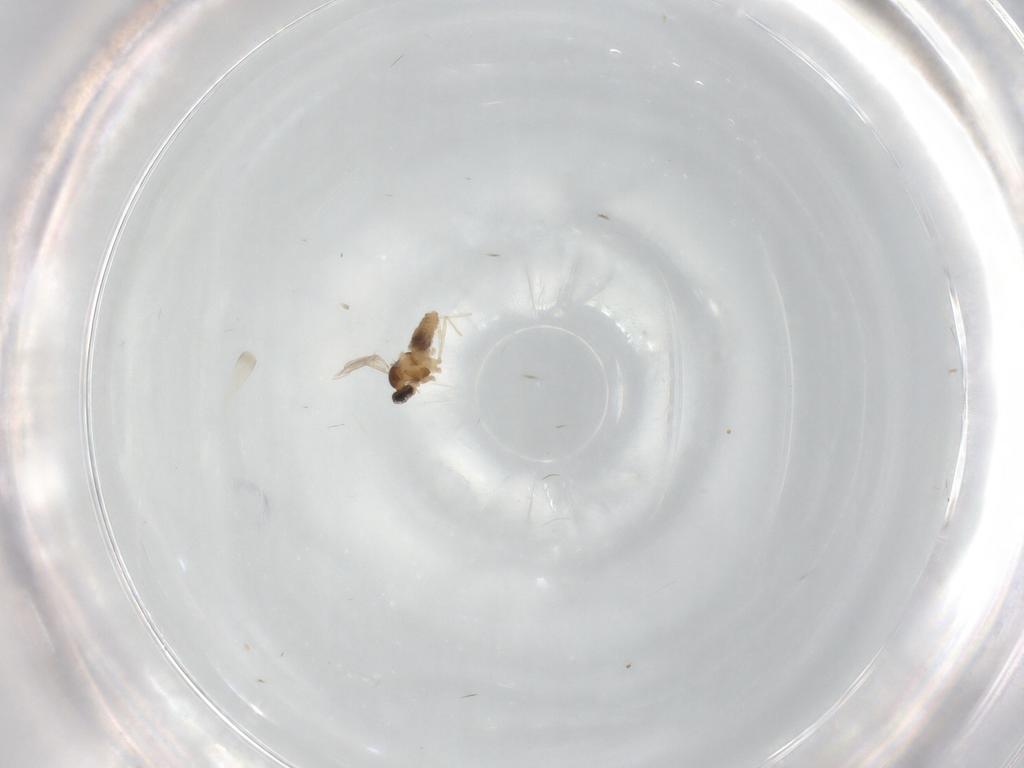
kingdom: Animalia
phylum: Arthropoda
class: Insecta
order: Diptera
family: Cecidomyiidae
